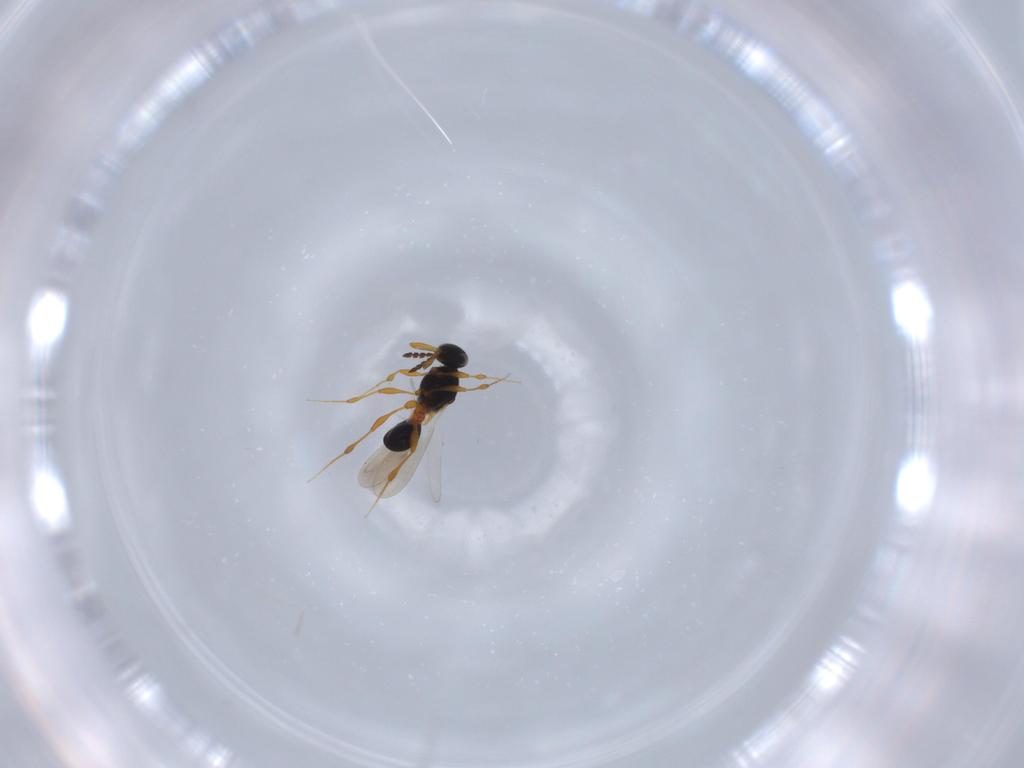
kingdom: Animalia
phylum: Arthropoda
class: Insecta
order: Hymenoptera
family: Platygastridae
